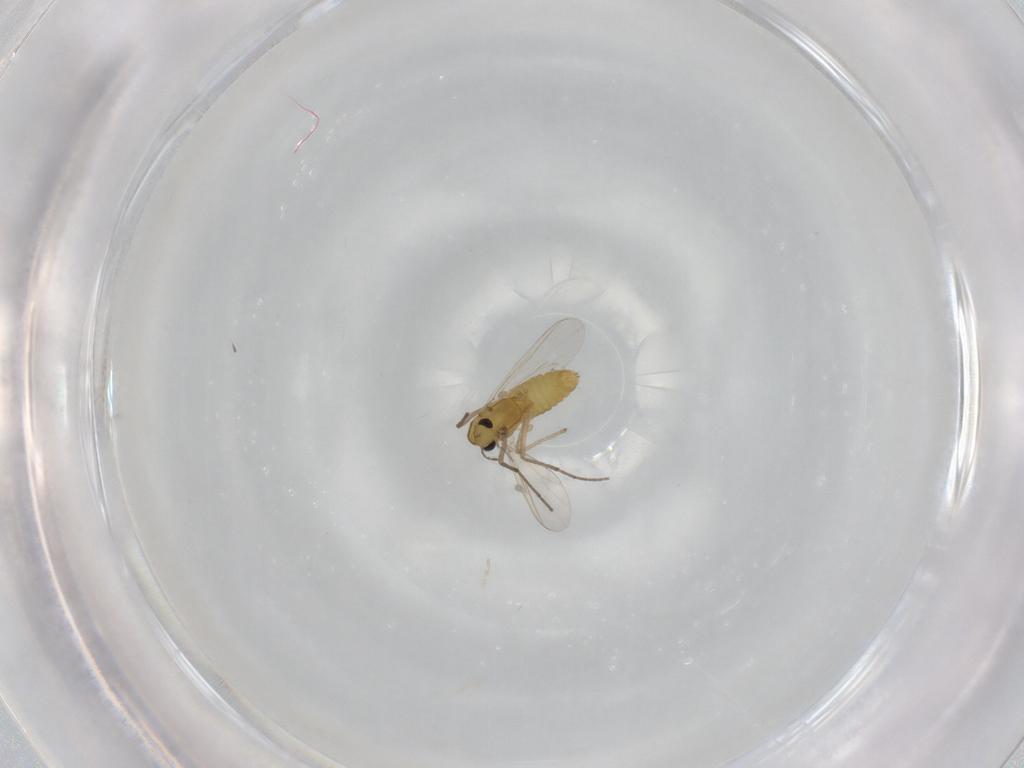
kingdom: Animalia
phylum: Arthropoda
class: Insecta
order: Diptera
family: Chironomidae
